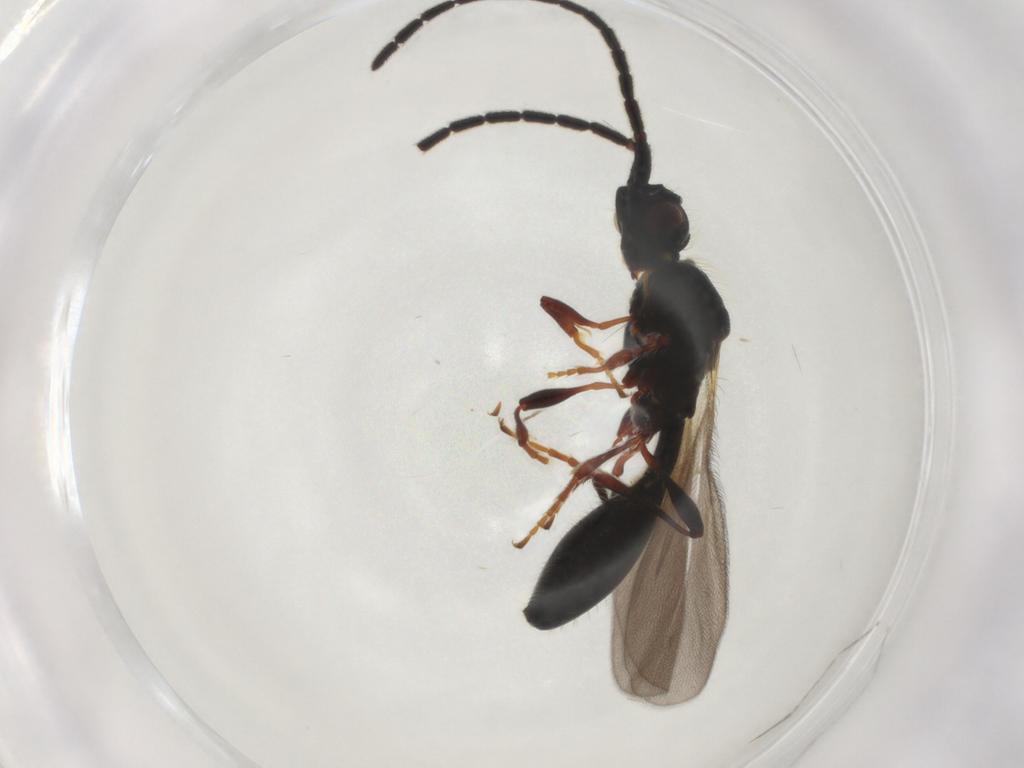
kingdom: Animalia
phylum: Arthropoda
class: Insecta
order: Hymenoptera
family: Diapriidae
